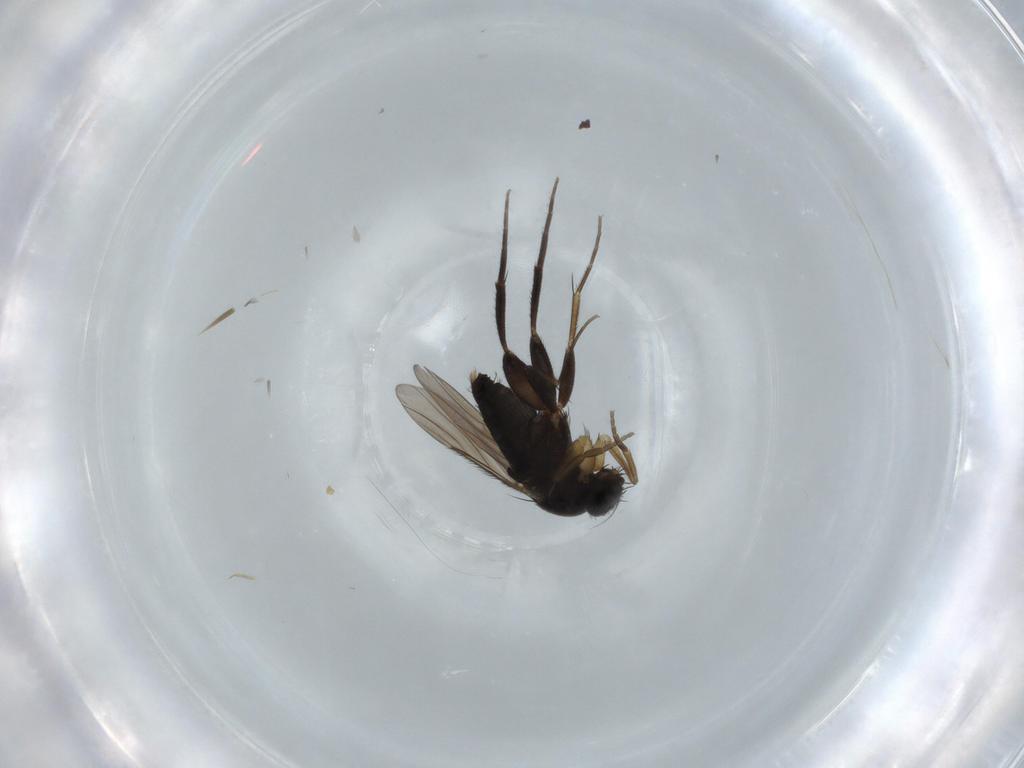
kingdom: Animalia
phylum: Arthropoda
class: Insecta
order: Diptera
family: Phoridae
